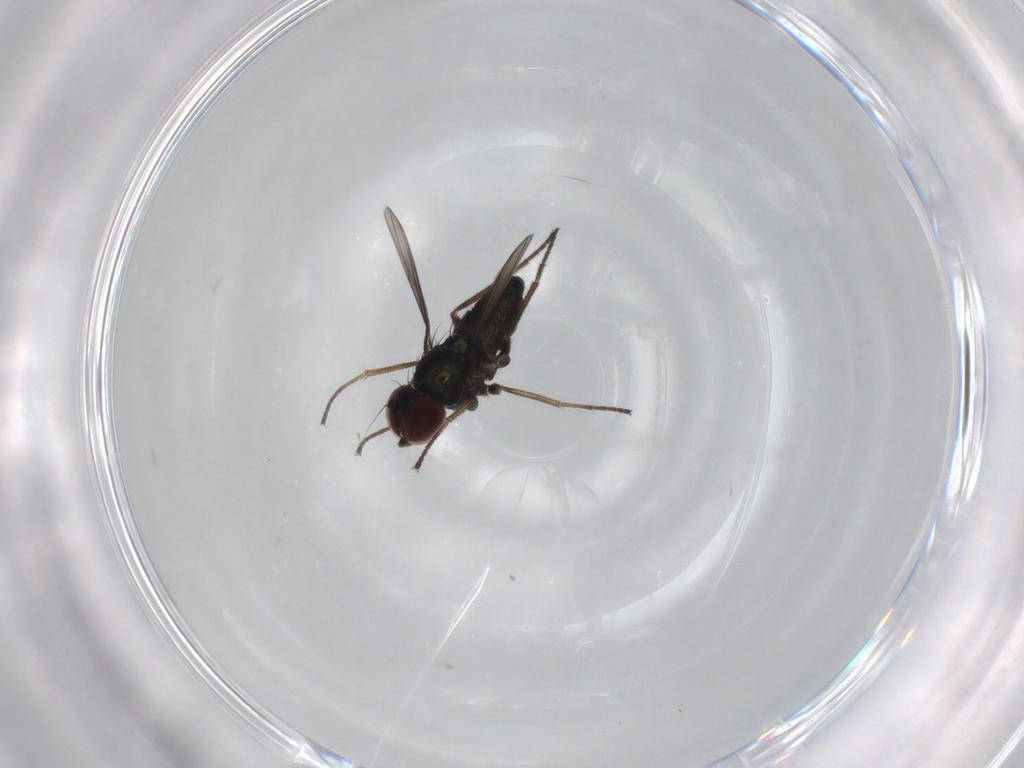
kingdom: Animalia
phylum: Arthropoda
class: Insecta
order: Diptera
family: Dolichopodidae
